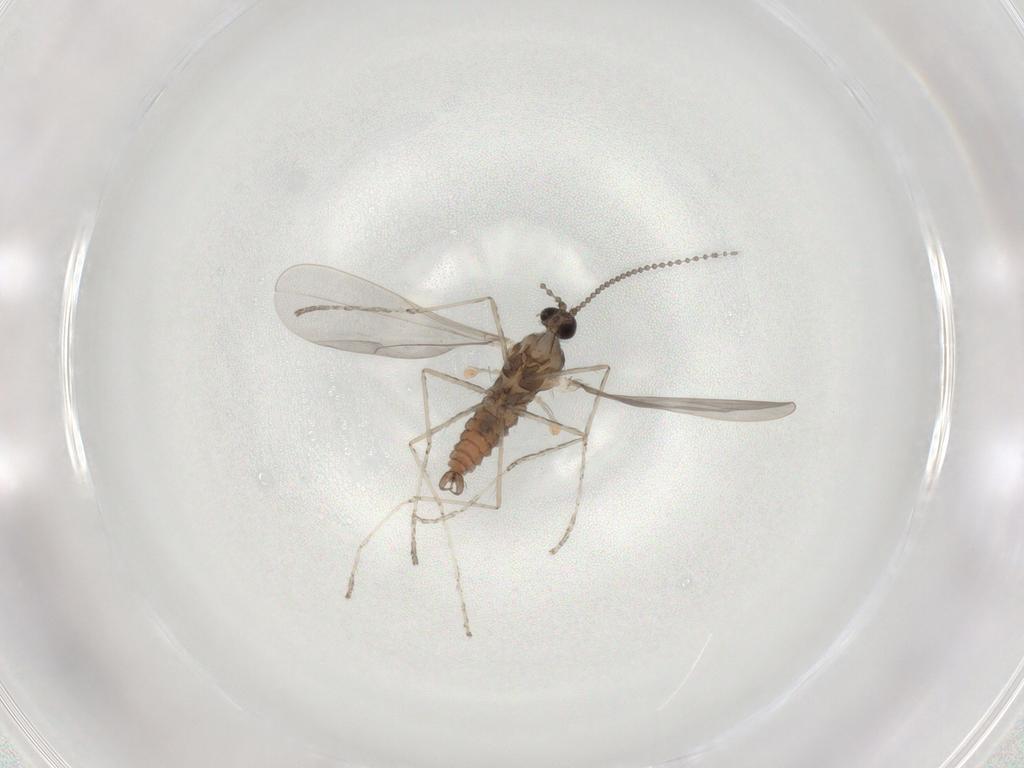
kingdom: Animalia
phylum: Arthropoda
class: Insecta
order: Diptera
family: Cecidomyiidae
